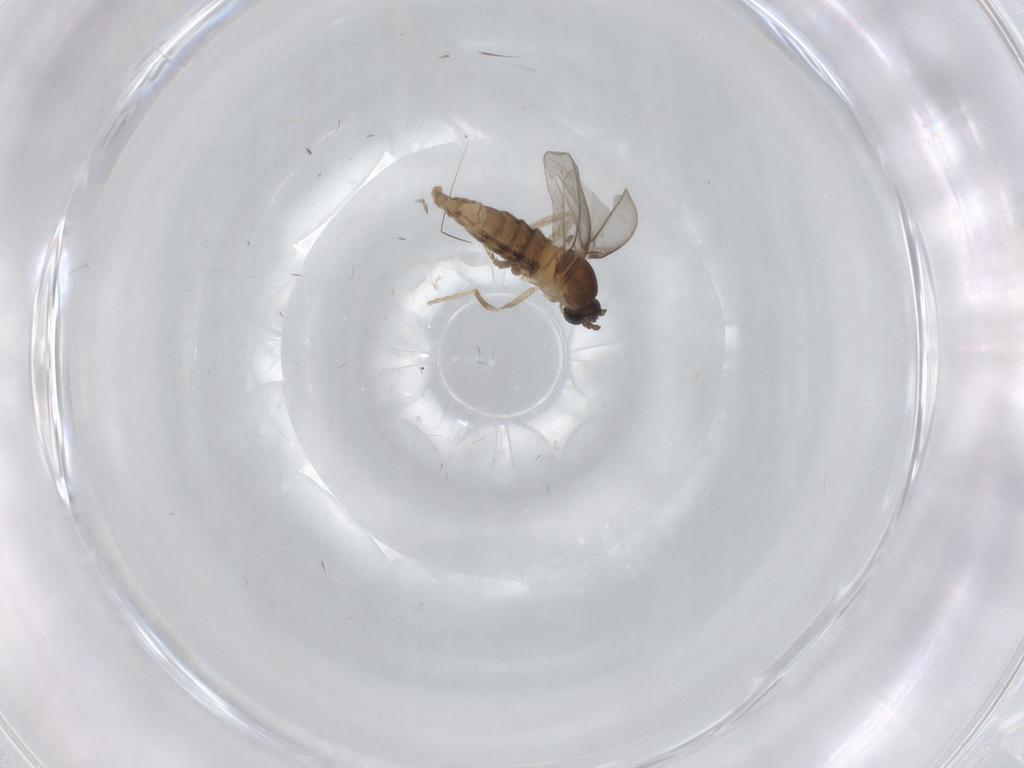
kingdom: Animalia
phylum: Arthropoda
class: Insecta
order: Diptera
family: Cecidomyiidae
